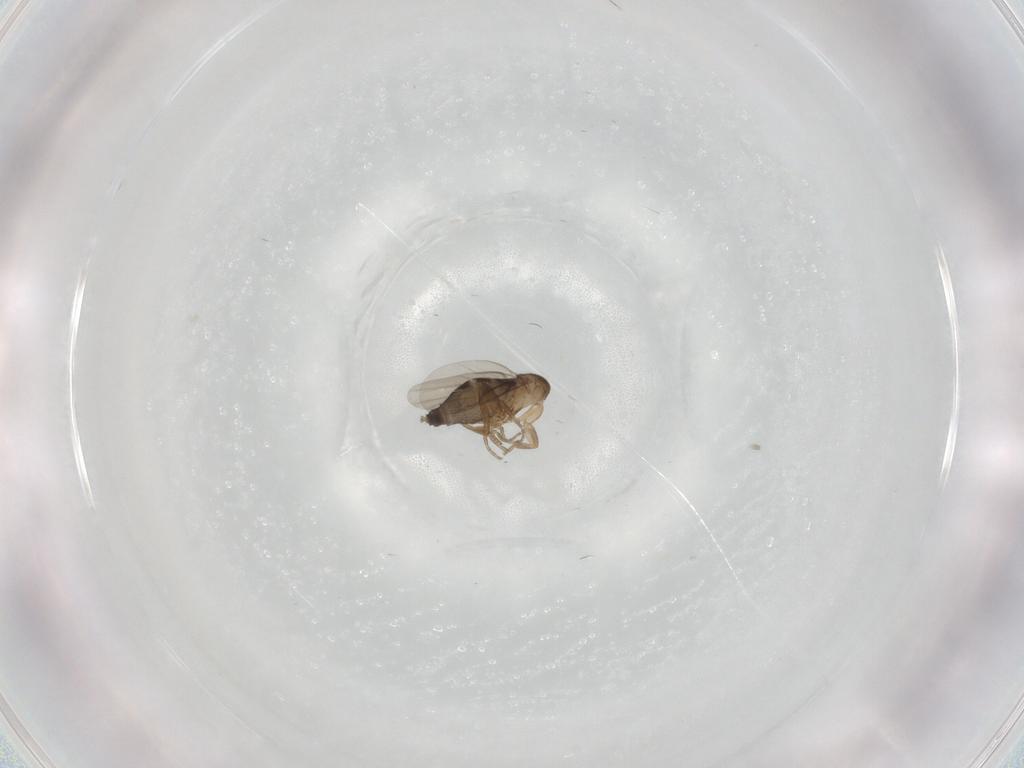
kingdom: Animalia
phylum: Arthropoda
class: Insecta
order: Diptera
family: Phoridae
